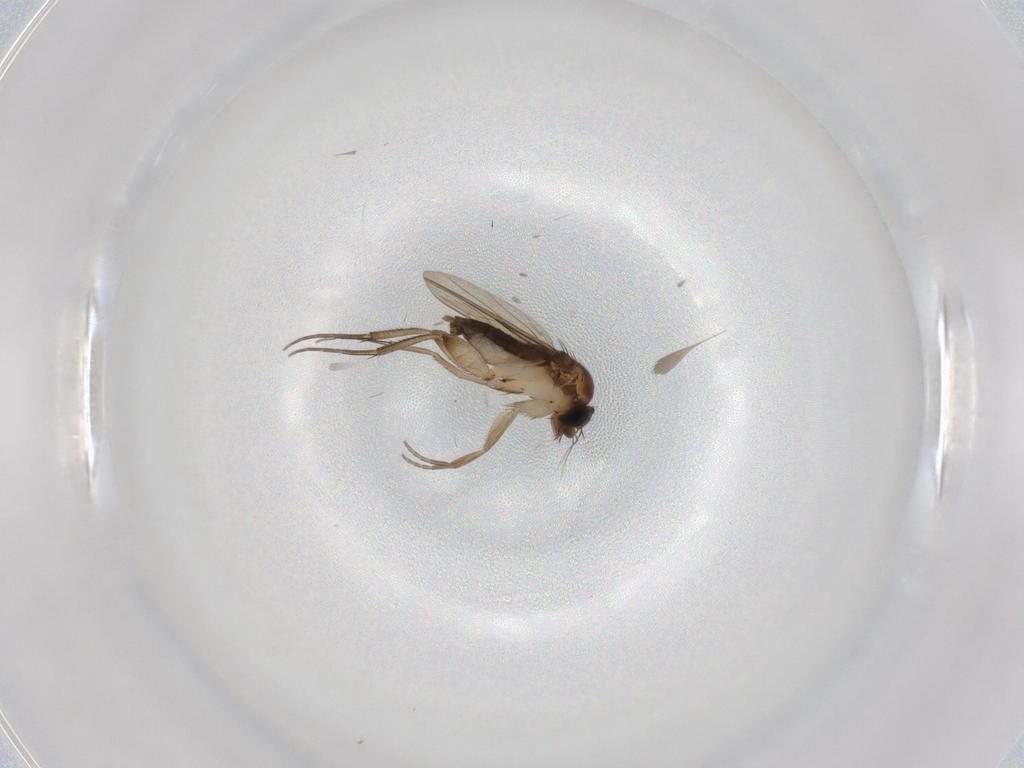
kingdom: Animalia
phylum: Arthropoda
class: Insecta
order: Diptera
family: Phoridae
